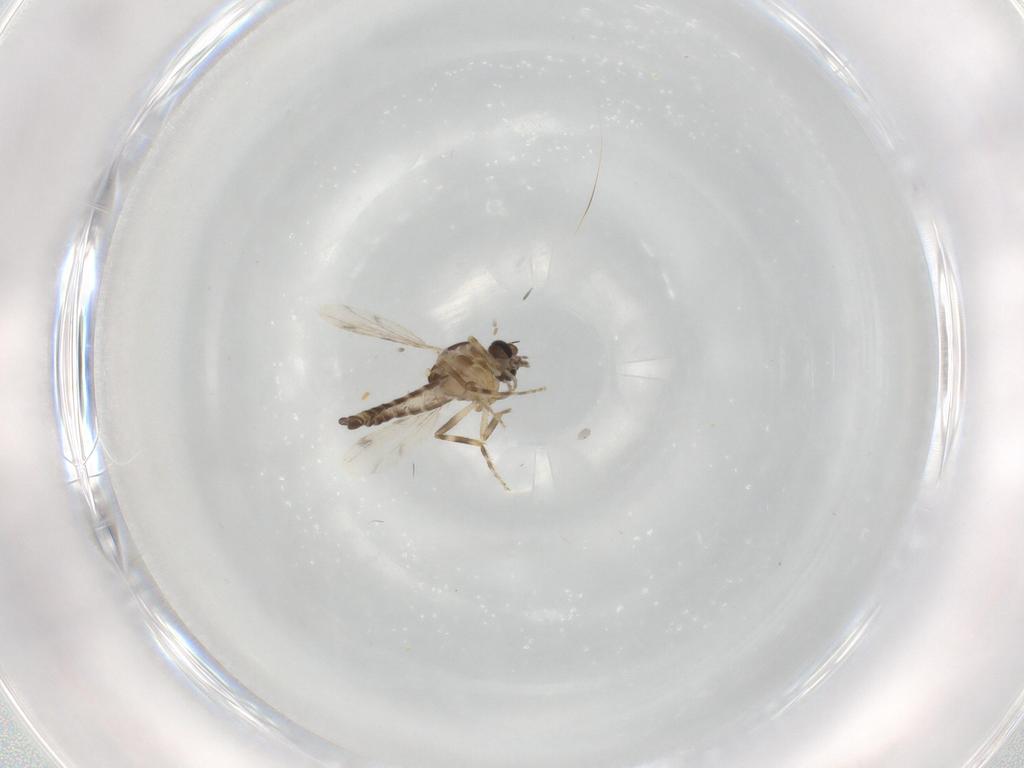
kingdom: Animalia
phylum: Arthropoda
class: Insecta
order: Diptera
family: Ceratopogonidae
